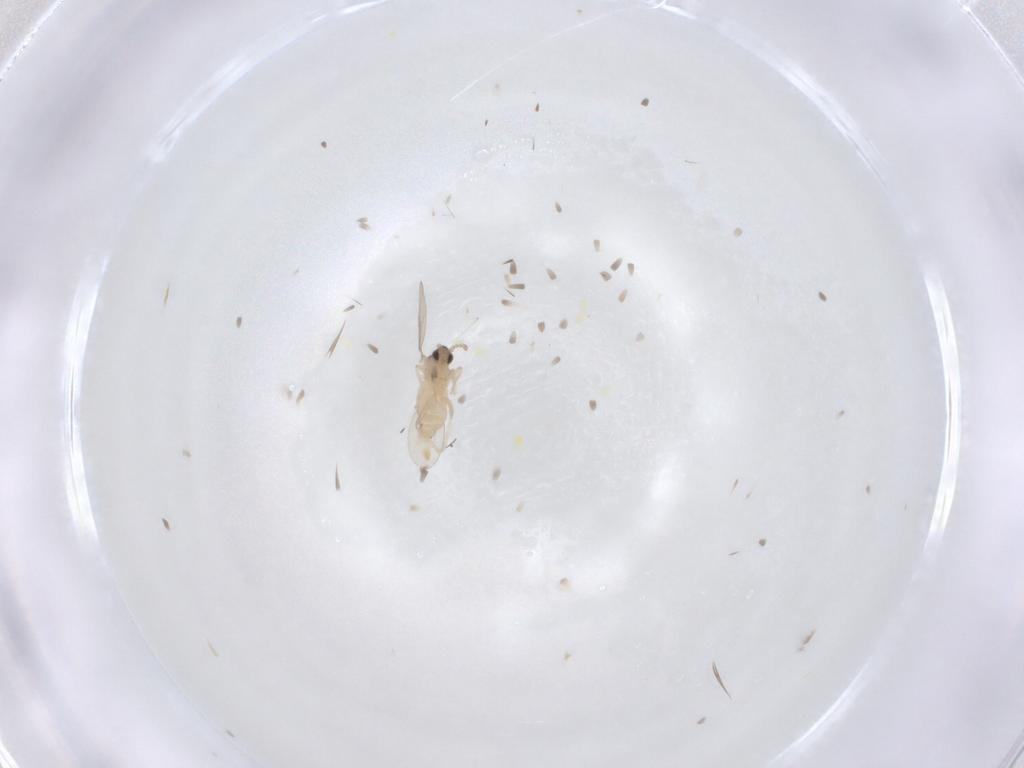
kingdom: Animalia
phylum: Arthropoda
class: Insecta
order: Diptera
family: Cecidomyiidae
